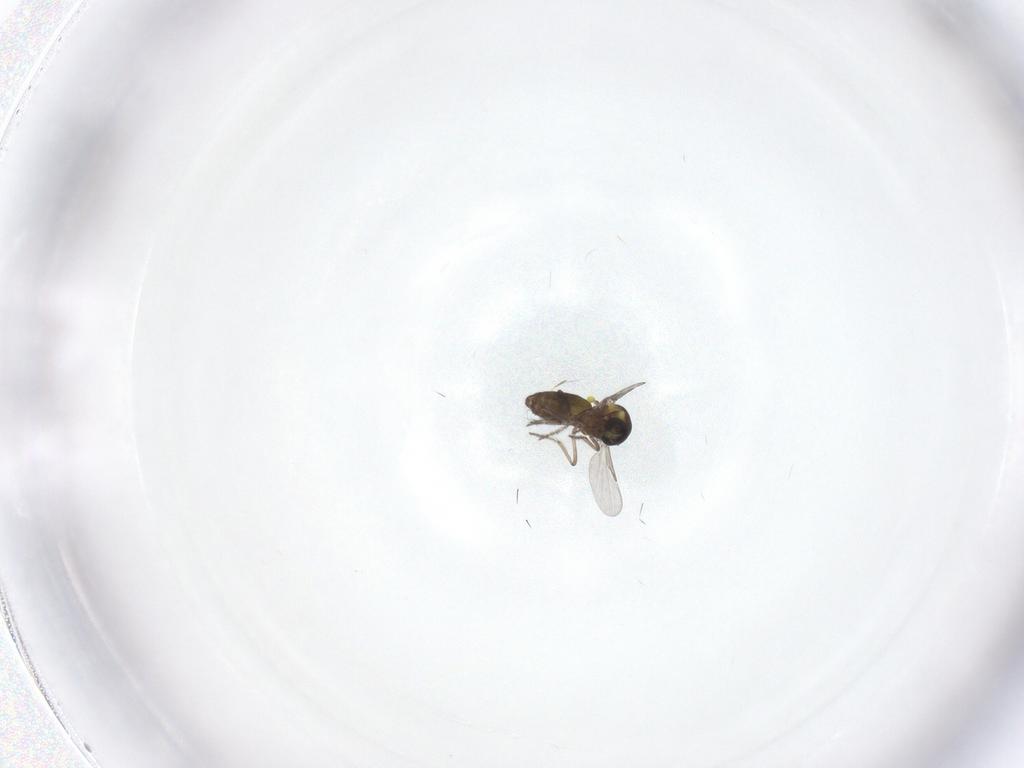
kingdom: Animalia
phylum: Arthropoda
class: Insecta
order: Diptera
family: Ceratopogonidae
